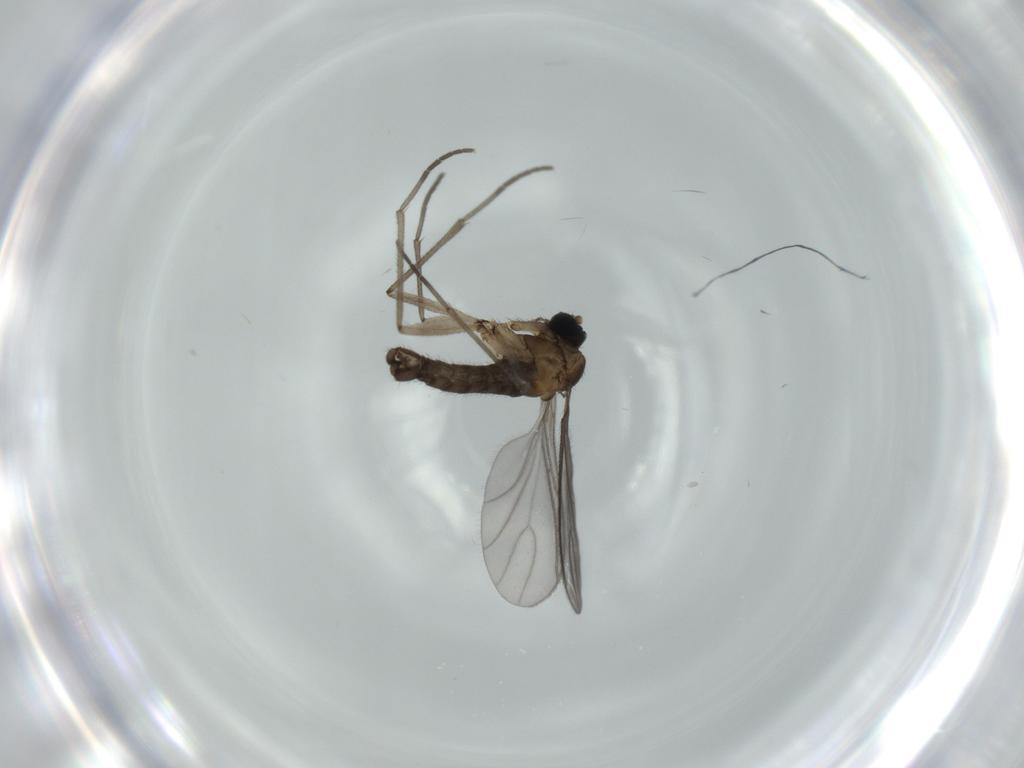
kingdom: Animalia
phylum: Arthropoda
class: Insecta
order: Diptera
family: Sciaridae
